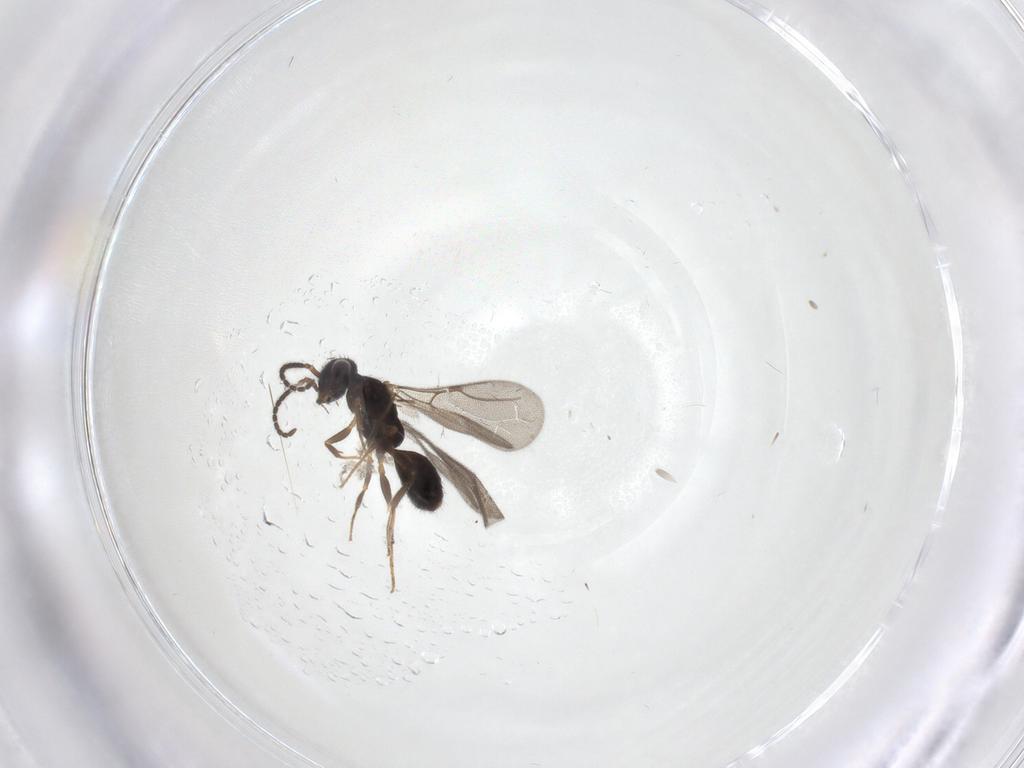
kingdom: Animalia
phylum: Arthropoda
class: Insecta
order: Hymenoptera
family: Bethylidae
